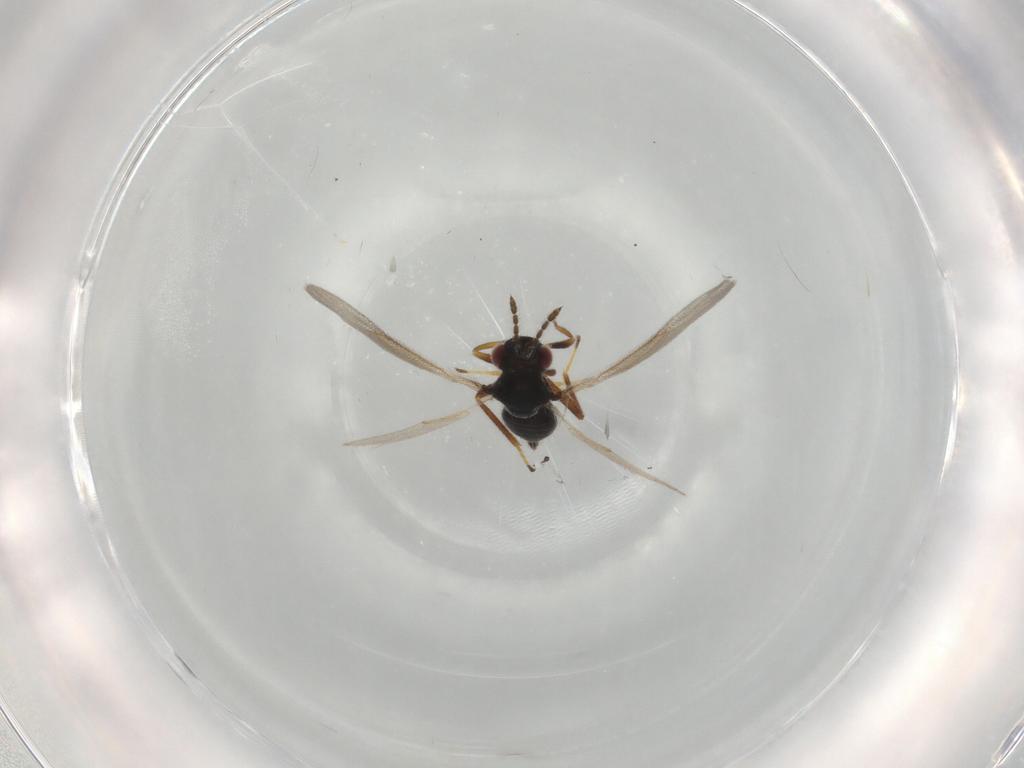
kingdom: Animalia
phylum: Arthropoda
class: Insecta
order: Hymenoptera
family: Eulophidae
